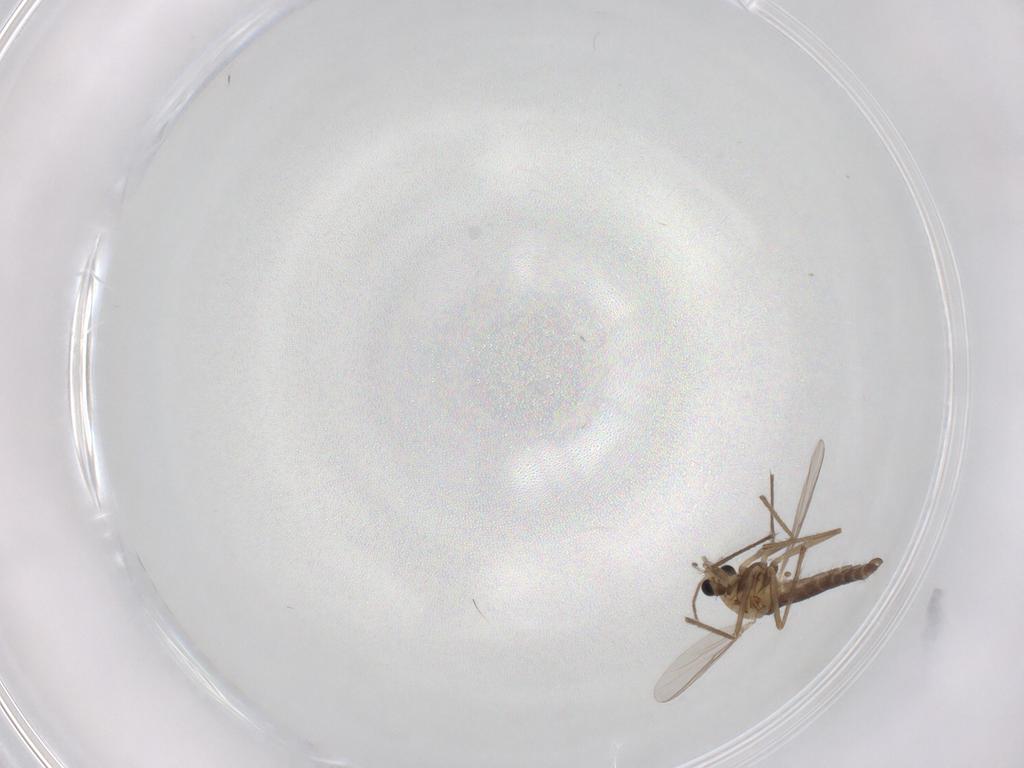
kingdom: Animalia
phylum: Arthropoda
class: Insecta
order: Diptera
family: Chironomidae
